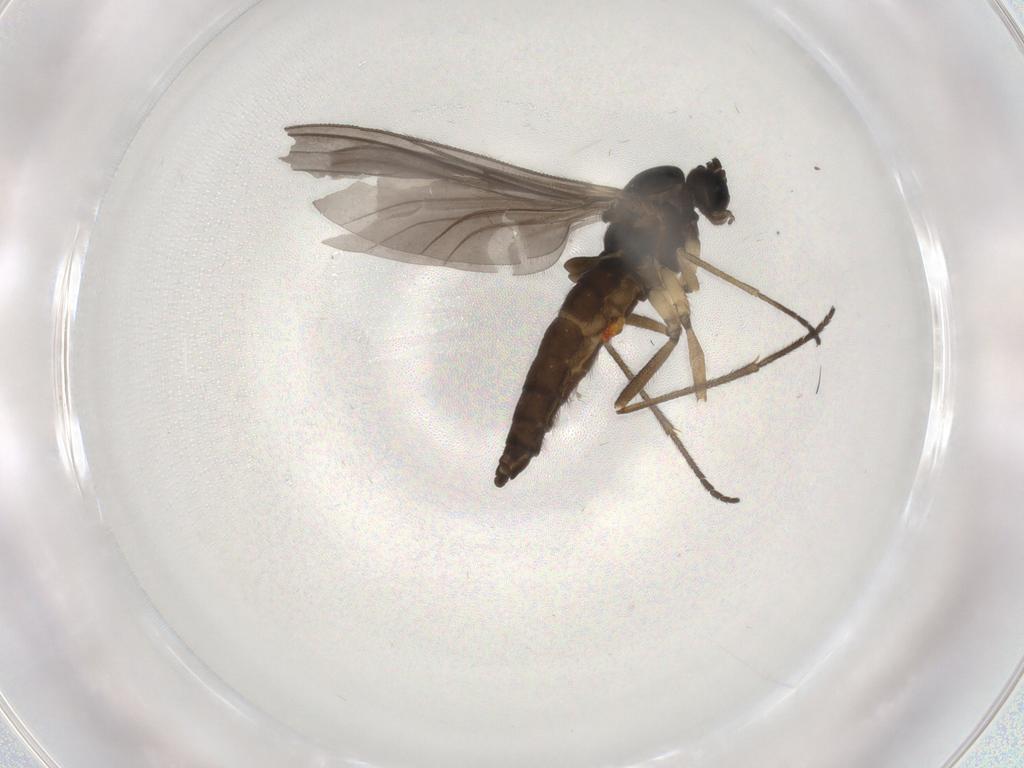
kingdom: Animalia
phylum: Arthropoda
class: Insecta
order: Diptera
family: Sciaridae
